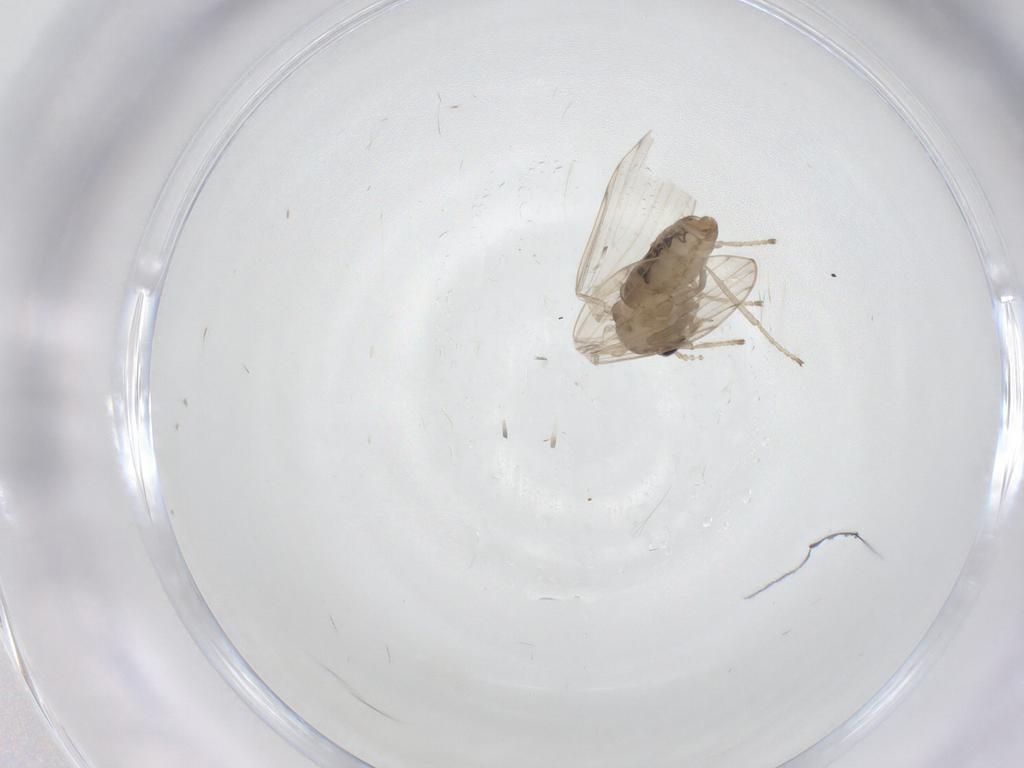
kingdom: Animalia
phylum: Arthropoda
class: Insecta
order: Diptera
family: Psychodidae
